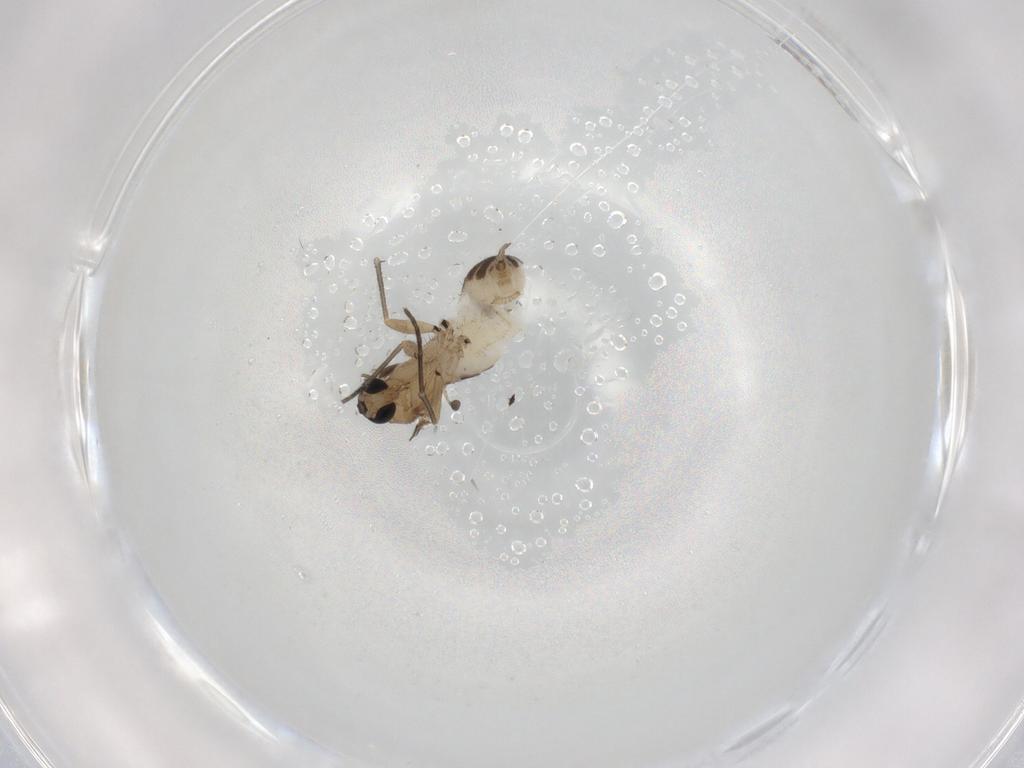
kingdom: Animalia
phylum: Arthropoda
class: Insecta
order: Diptera
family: Sciaridae
